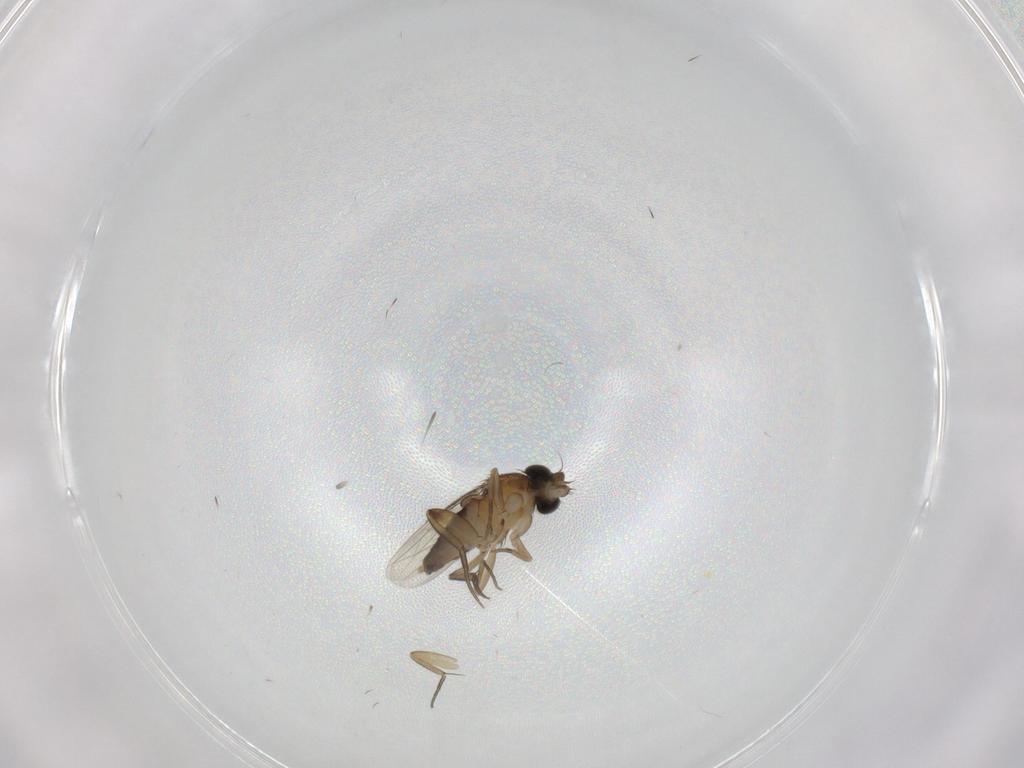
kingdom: Animalia
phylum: Arthropoda
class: Insecta
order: Diptera
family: Phoridae
